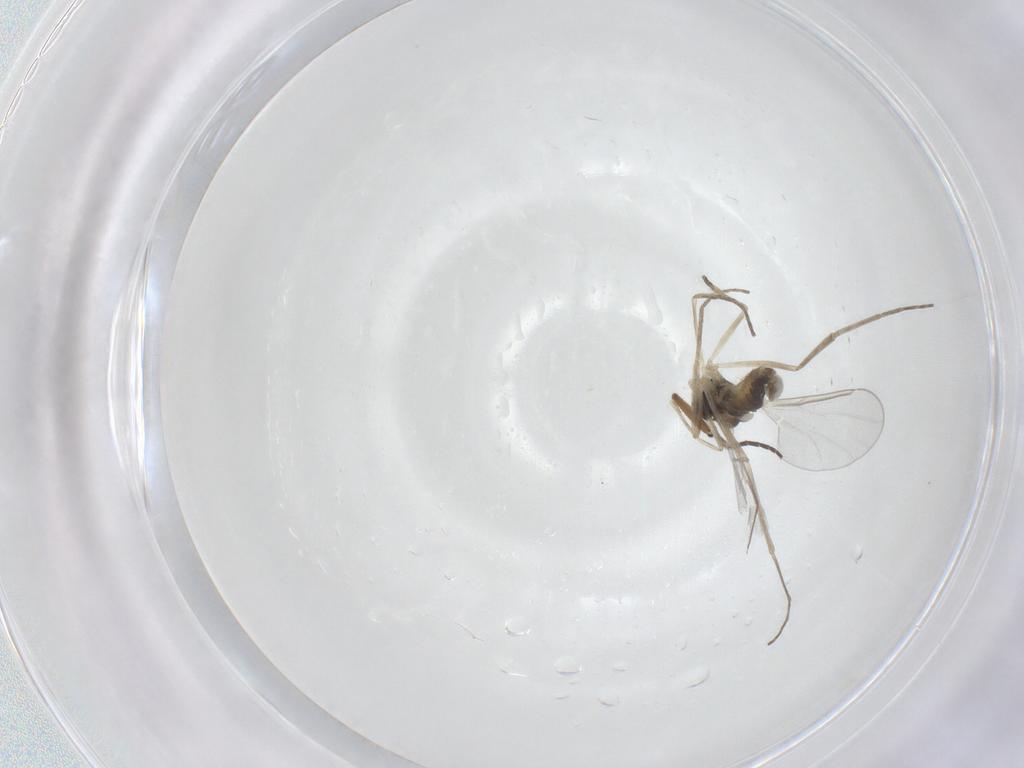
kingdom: Animalia
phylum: Arthropoda
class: Insecta
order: Diptera
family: Cecidomyiidae
